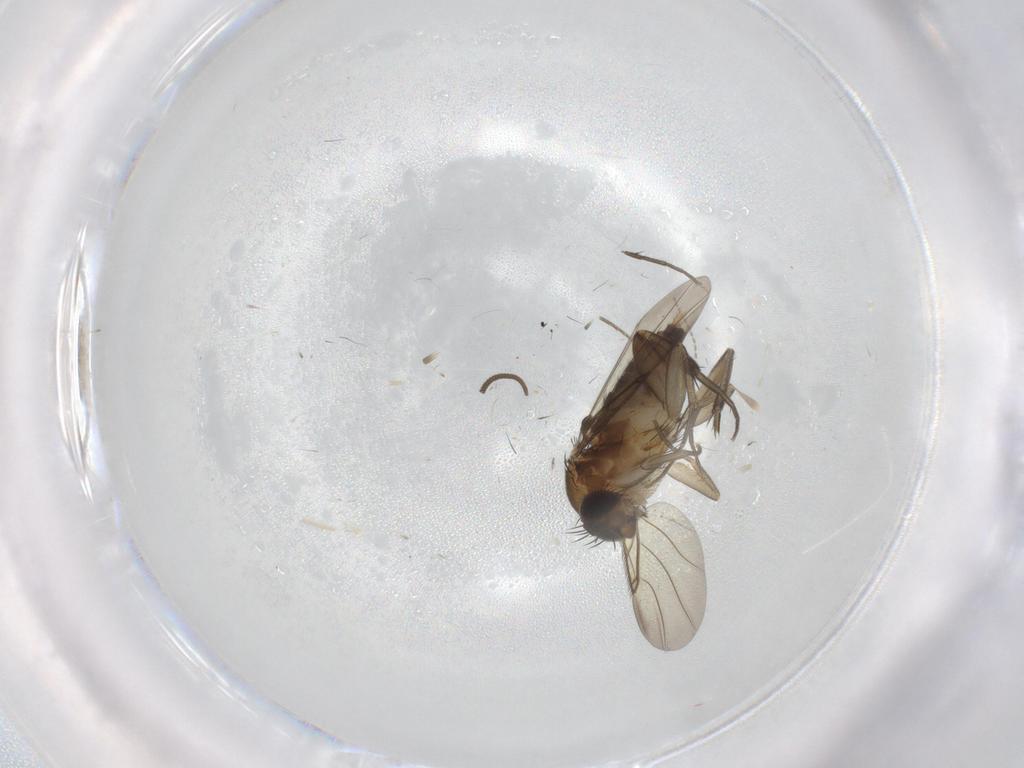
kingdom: Animalia
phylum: Arthropoda
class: Insecta
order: Diptera
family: Phoridae
